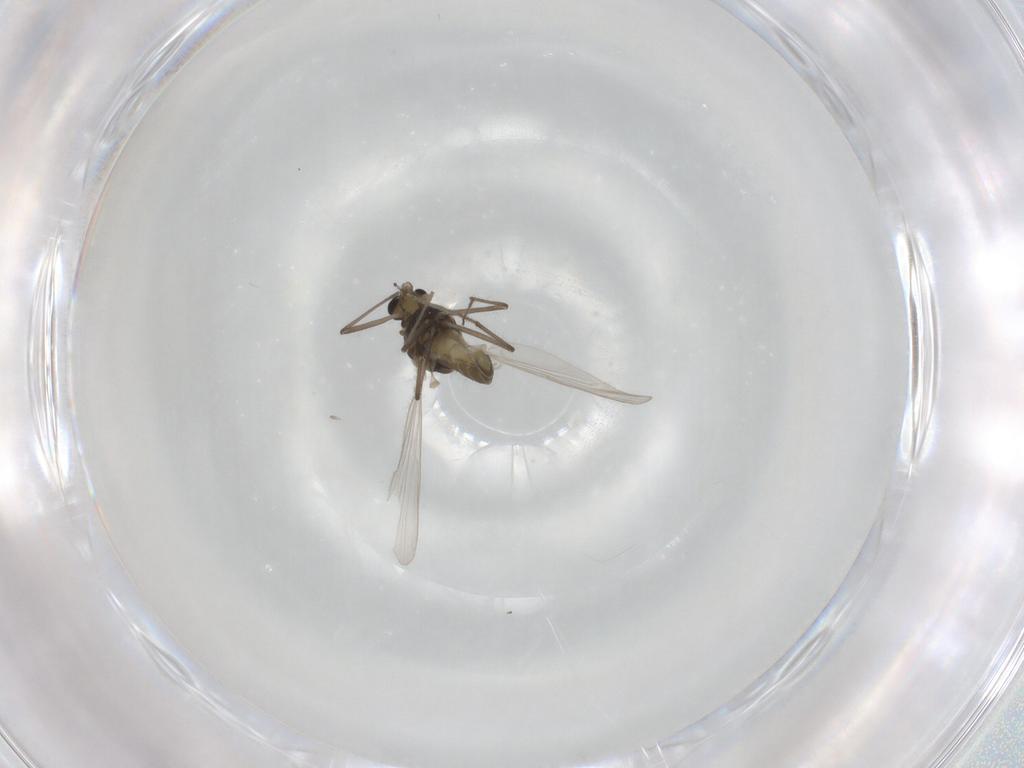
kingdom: Animalia
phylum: Arthropoda
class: Insecta
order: Diptera
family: Chironomidae
